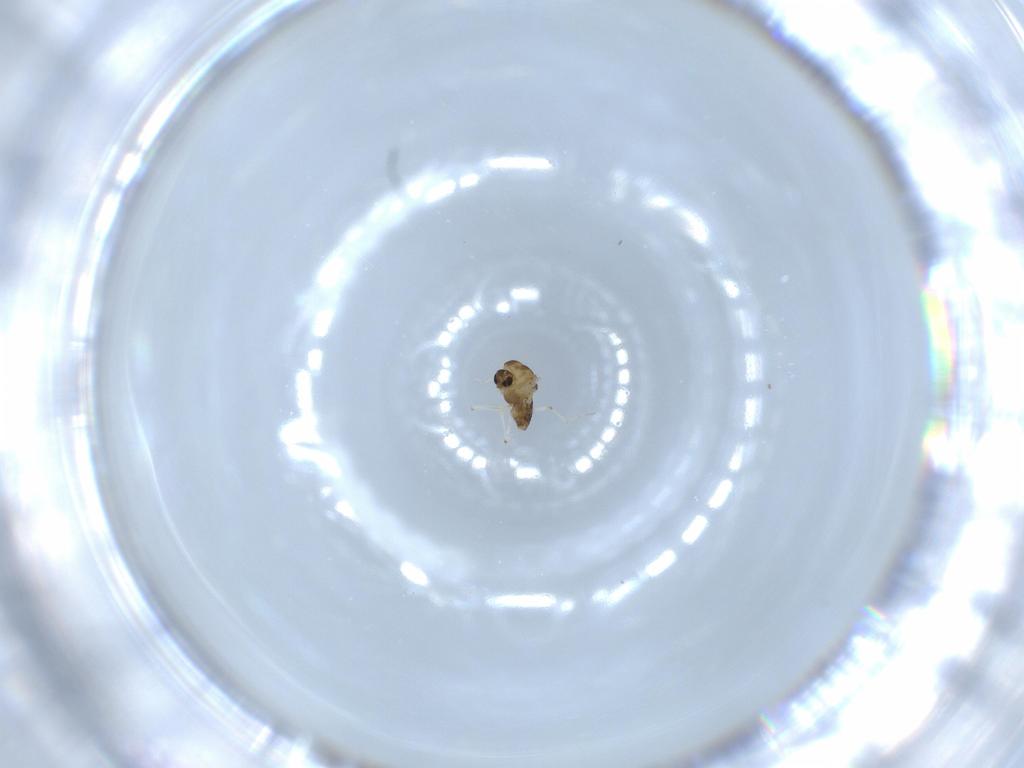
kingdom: Animalia
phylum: Arthropoda
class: Insecta
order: Diptera
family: Chironomidae
